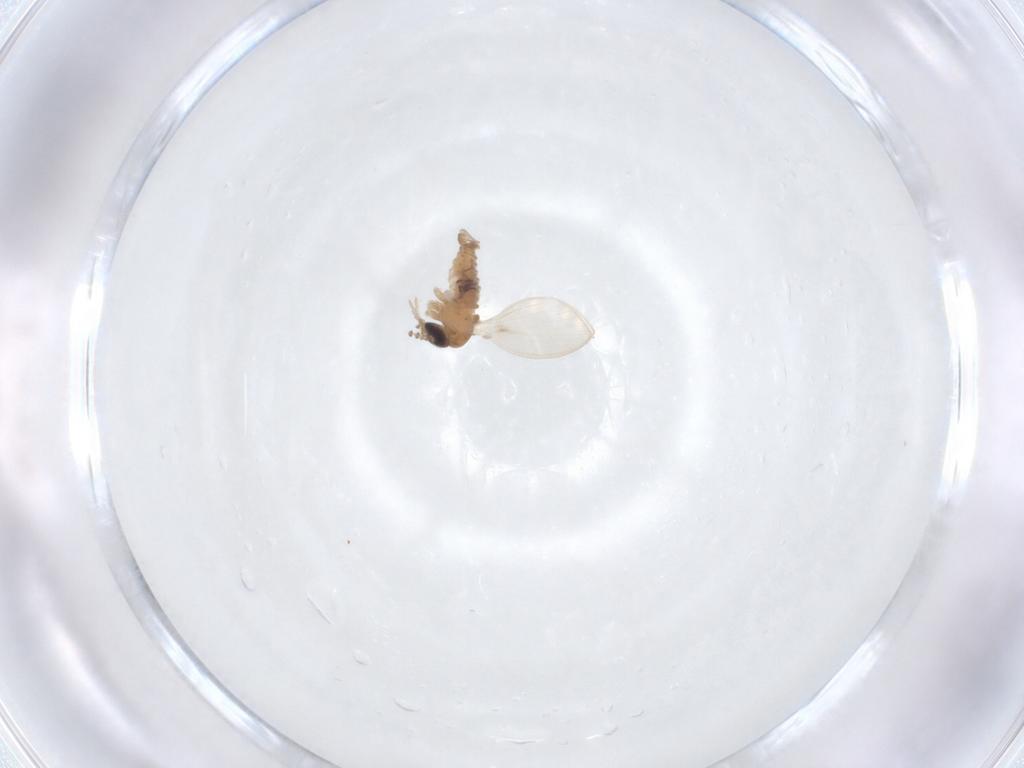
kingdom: Animalia
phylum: Arthropoda
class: Insecta
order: Diptera
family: Psychodidae
